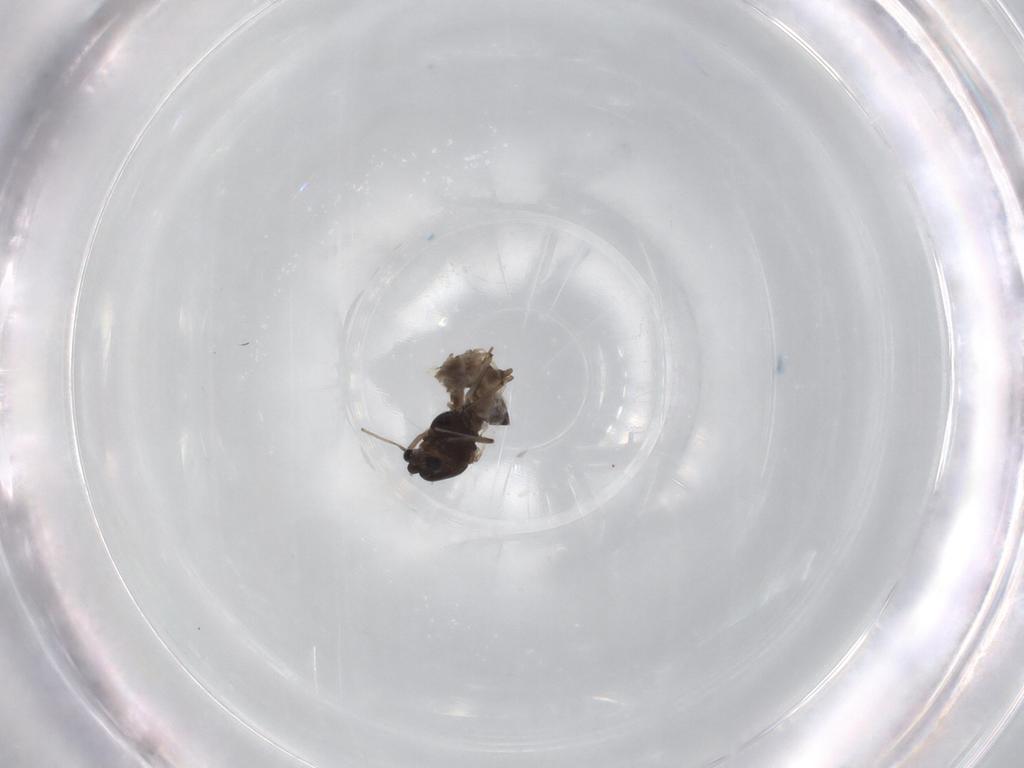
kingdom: Animalia
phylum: Arthropoda
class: Insecta
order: Diptera
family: Chironomidae
